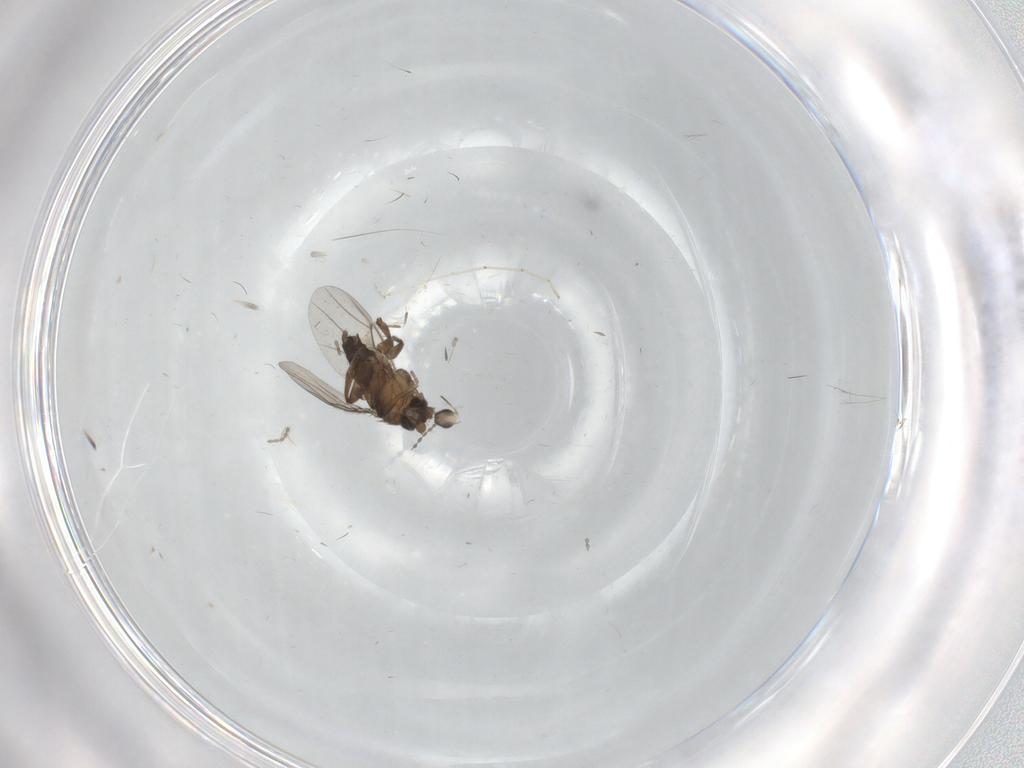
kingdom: Animalia
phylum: Arthropoda
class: Insecta
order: Diptera
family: Cecidomyiidae
